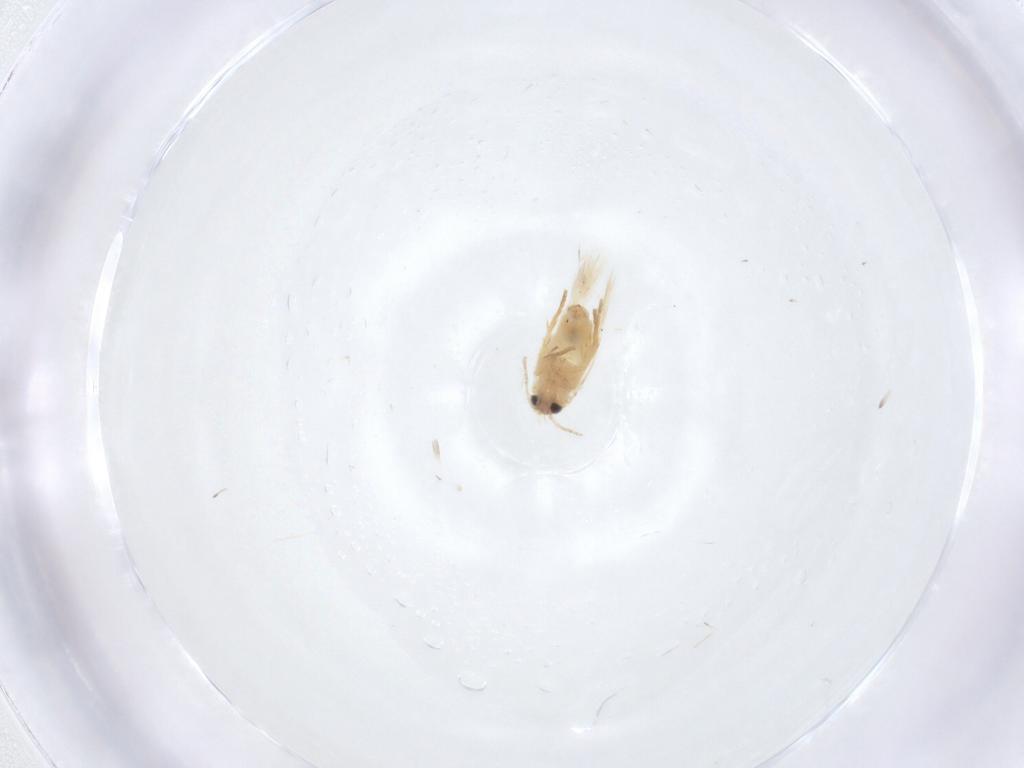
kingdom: Animalia
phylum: Arthropoda
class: Insecta
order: Lepidoptera
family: Crambidae
